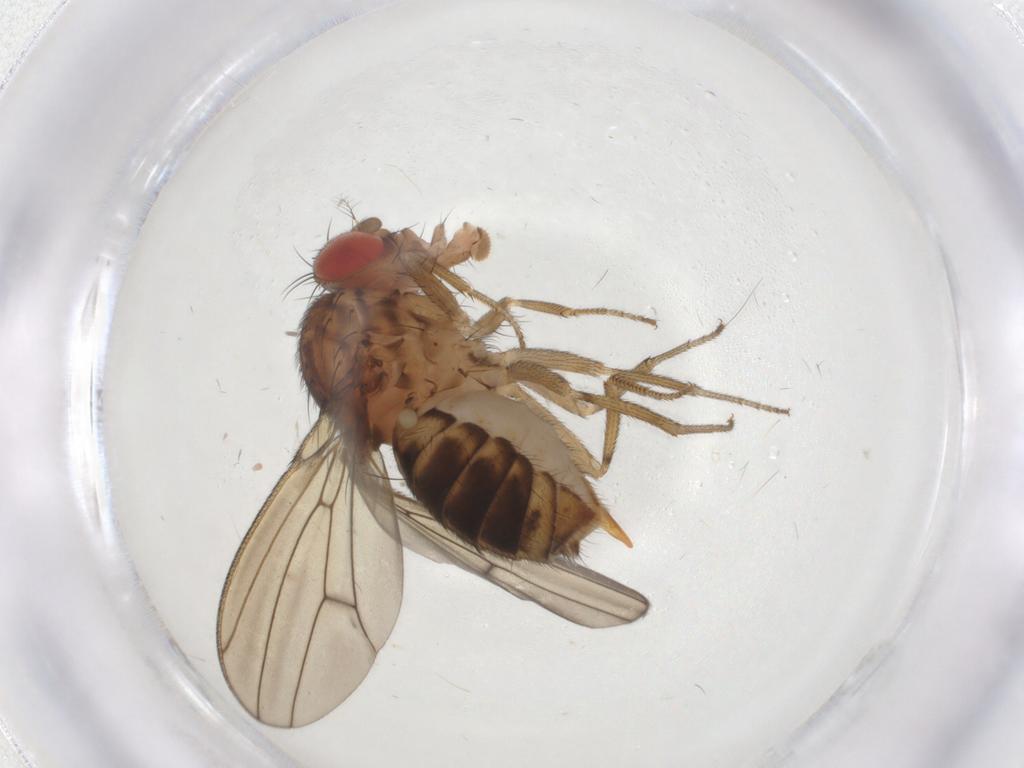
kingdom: Animalia
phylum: Arthropoda
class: Insecta
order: Diptera
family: Drosophilidae
